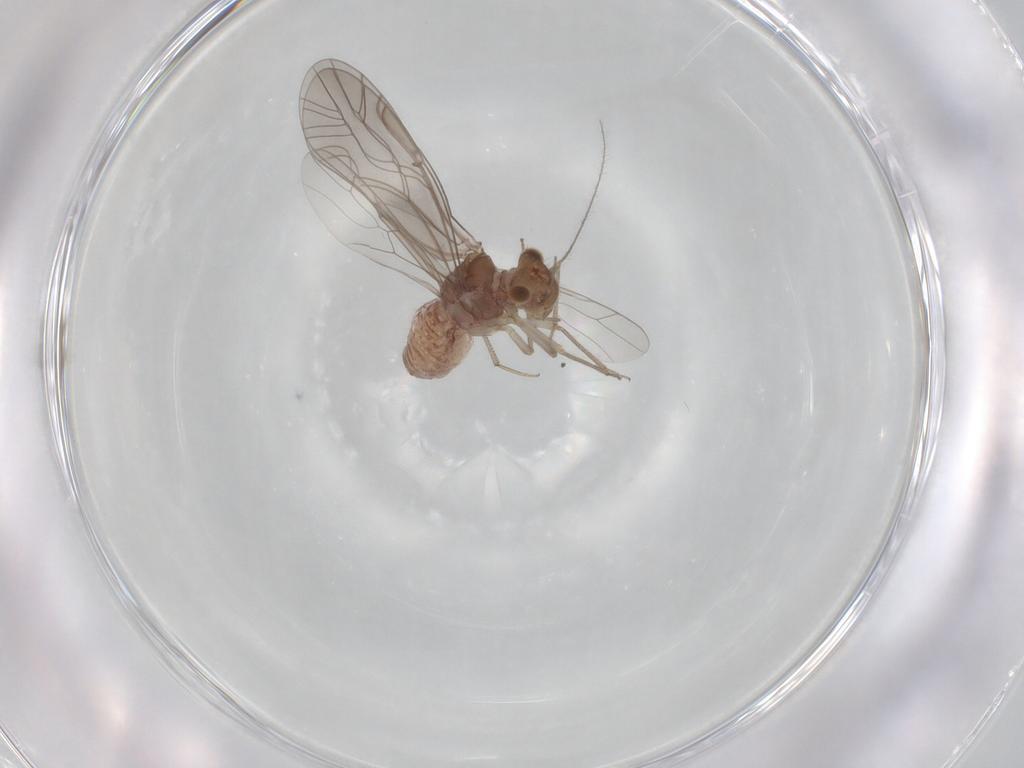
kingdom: Animalia
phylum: Arthropoda
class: Insecta
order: Psocodea
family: Lachesillidae
